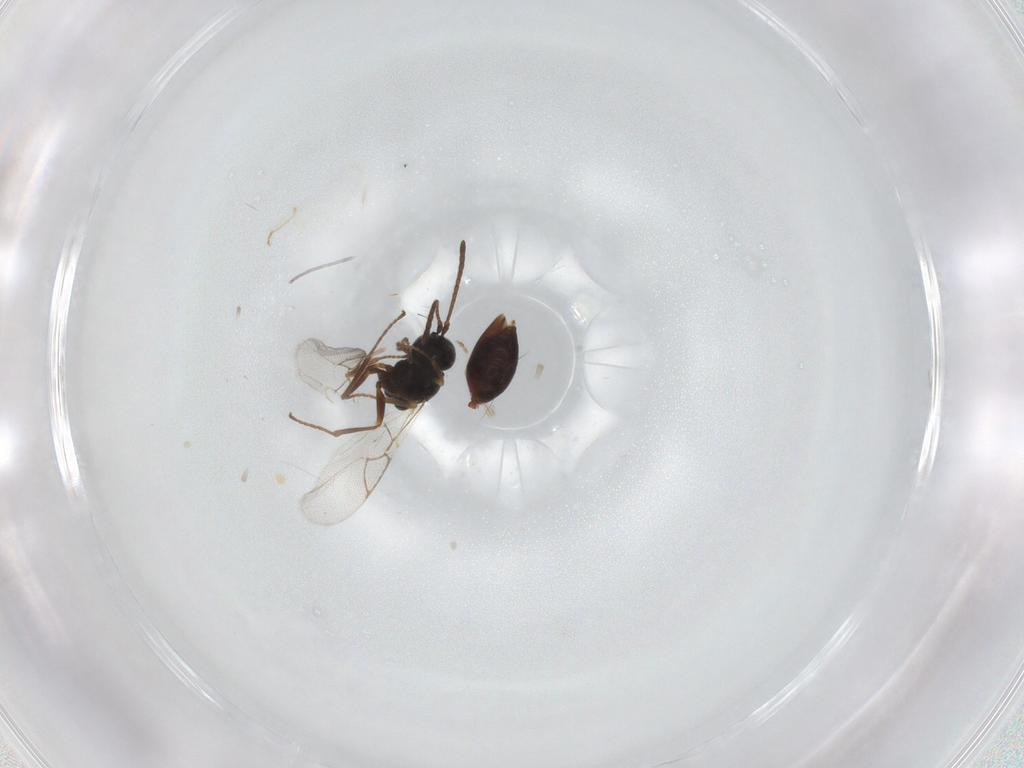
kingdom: Animalia
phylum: Arthropoda
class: Insecta
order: Hymenoptera
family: Figitidae
